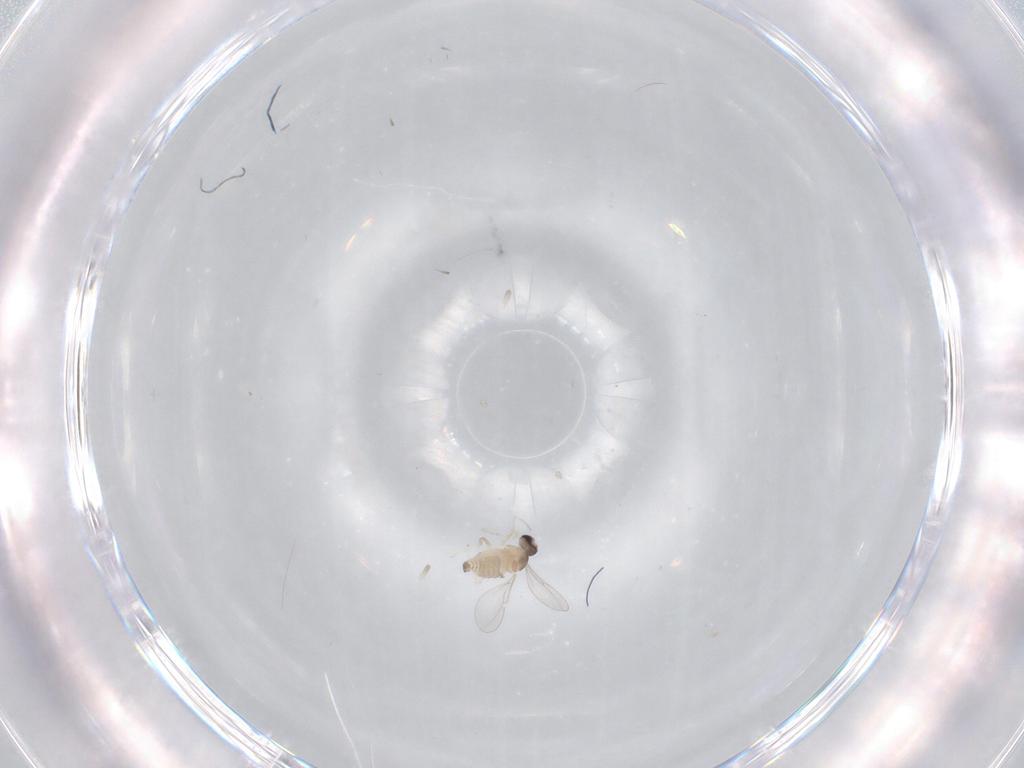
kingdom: Animalia
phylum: Arthropoda
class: Insecta
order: Diptera
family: Cecidomyiidae
